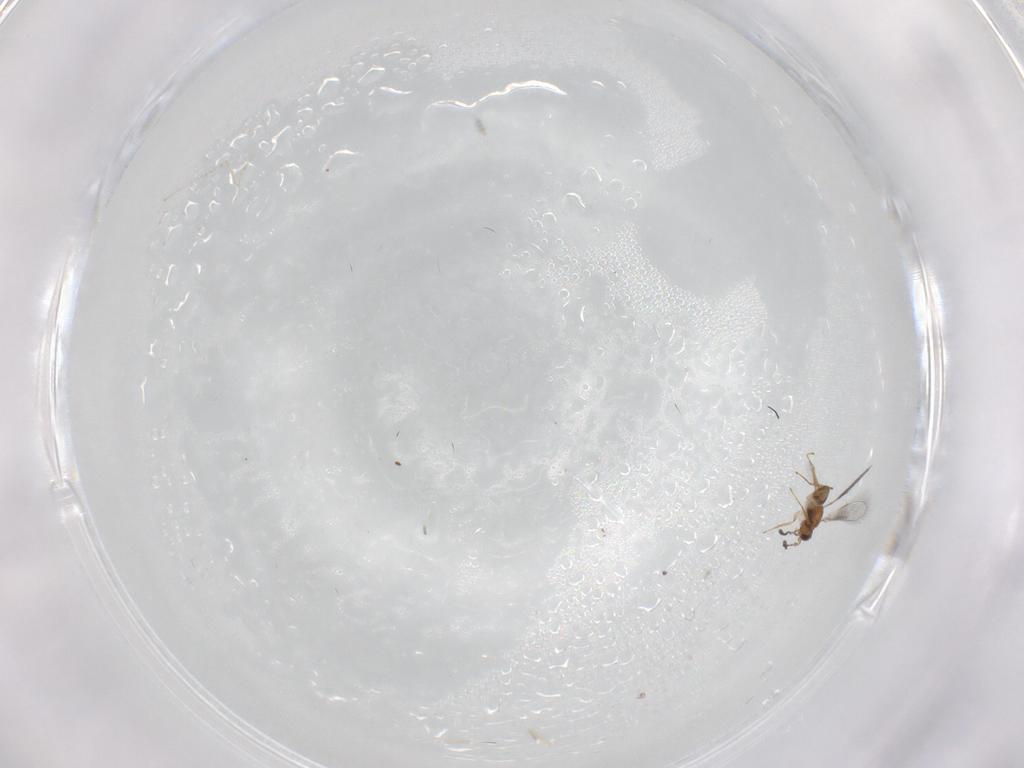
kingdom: Animalia
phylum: Arthropoda
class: Insecta
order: Hymenoptera
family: Mymaridae
